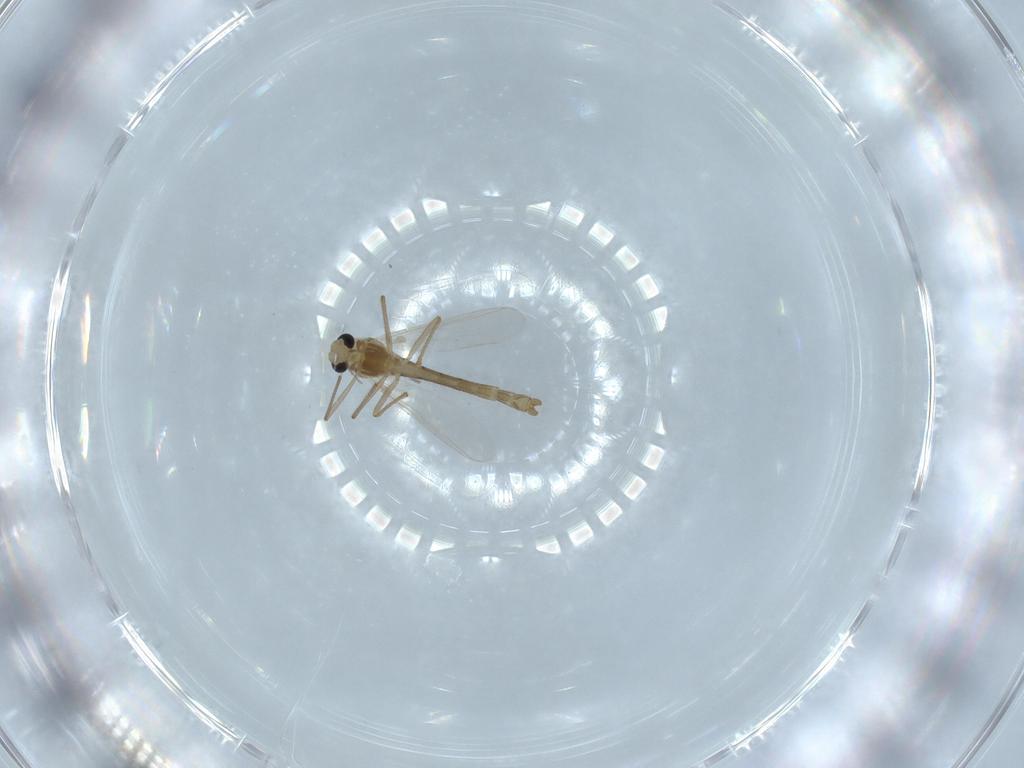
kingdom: Animalia
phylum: Arthropoda
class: Insecta
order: Diptera
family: Chironomidae
